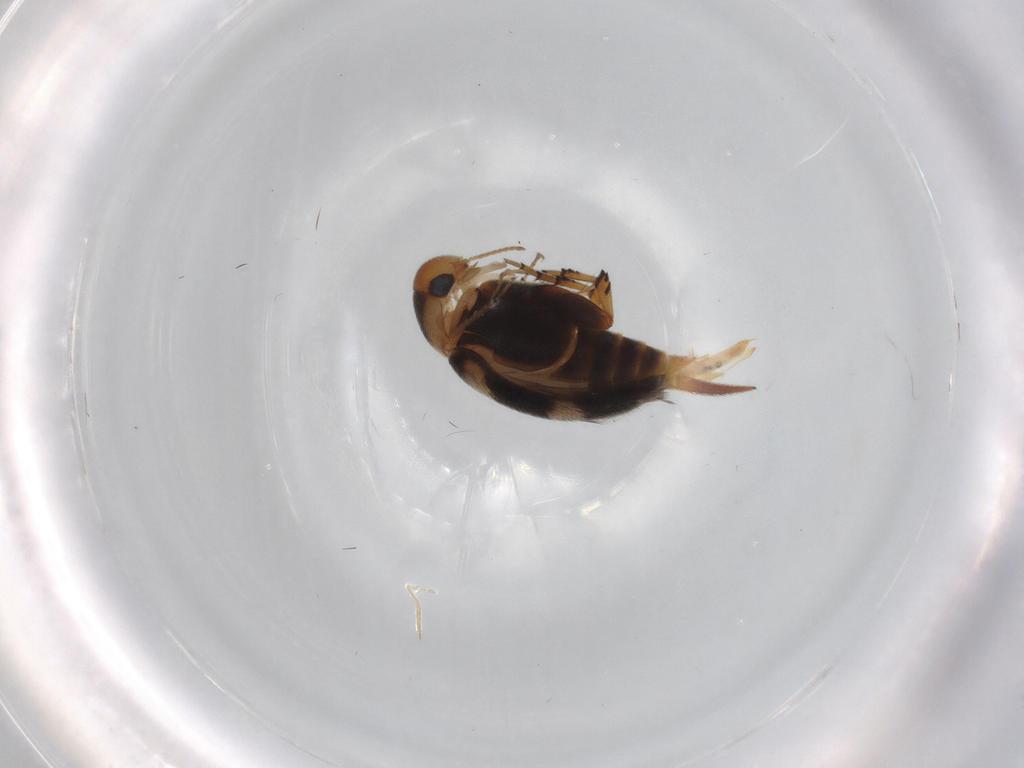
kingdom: Animalia
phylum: Arthropoda
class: Insecta
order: Coleoptera
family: Mordellidae
